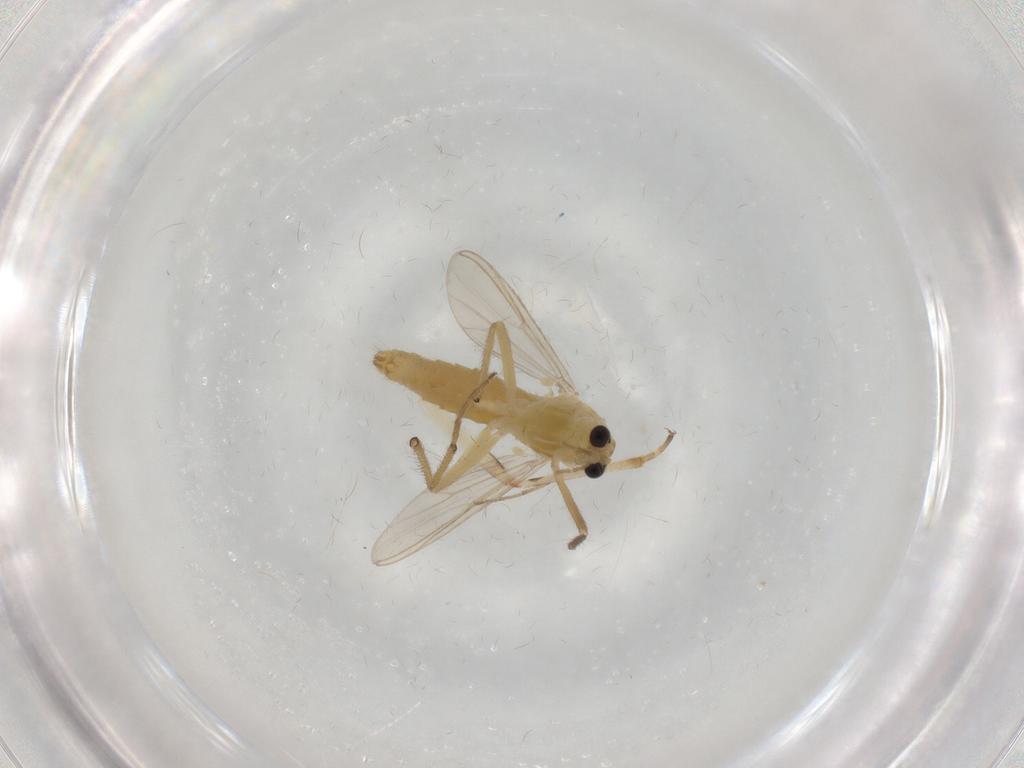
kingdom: Animalia
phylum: Arthropoda
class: Insecta
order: Diptera
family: Chironomidae
